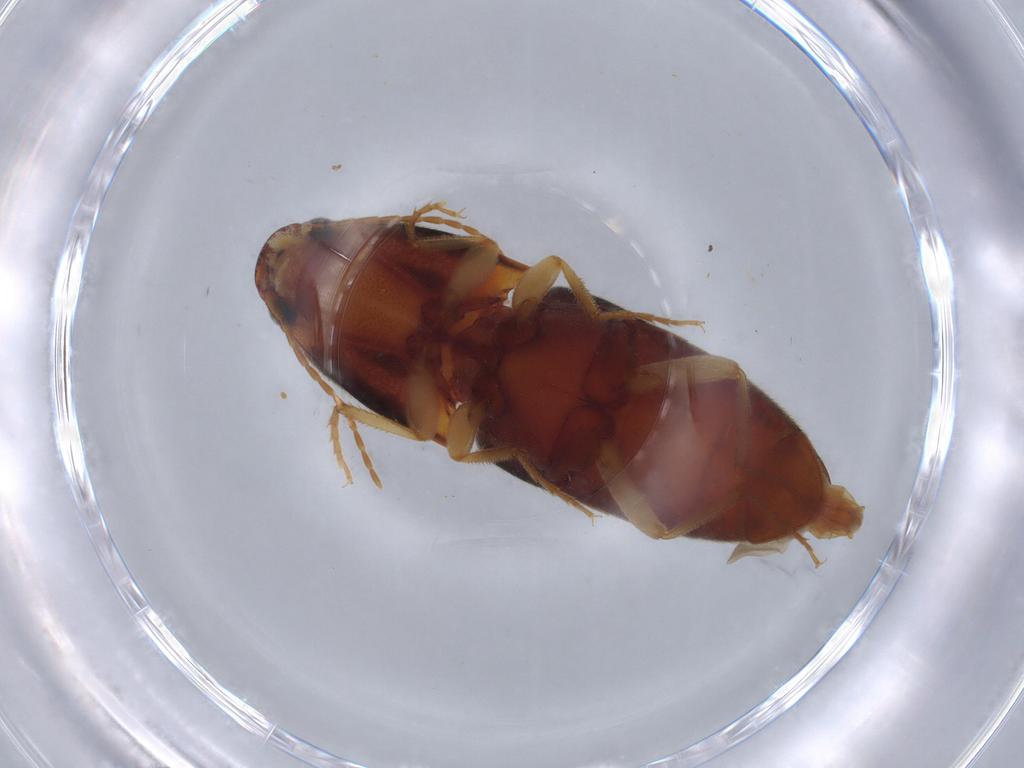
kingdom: Animalia
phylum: Arthropoda
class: Insecta
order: Coleoptera
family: Elateridae
